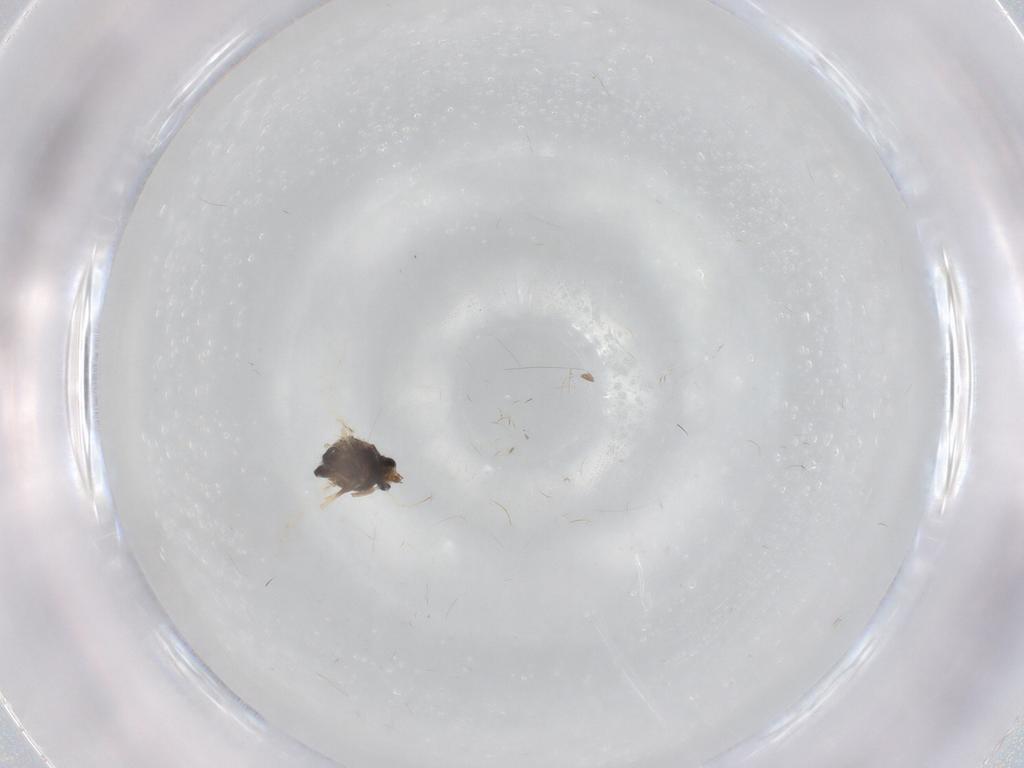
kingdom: Animalia
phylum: Arthropoda
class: Insecta
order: Diptera
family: Chironomidae
